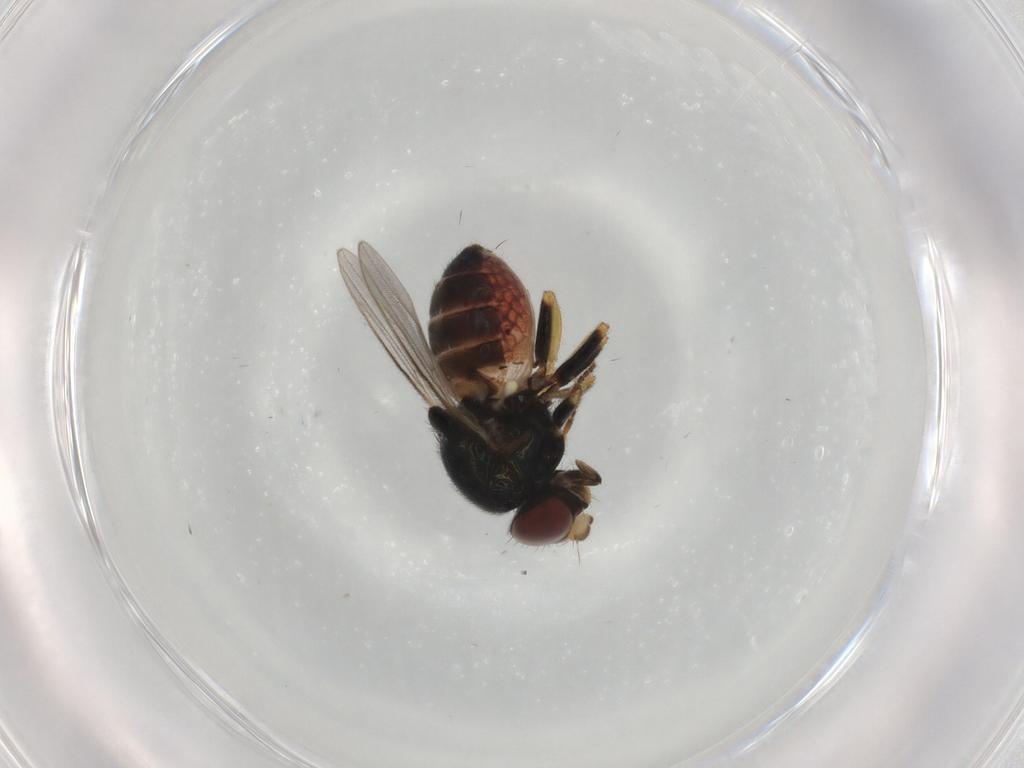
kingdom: Animalia
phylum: Arthropoda
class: Insecta
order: Diptera
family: Chloropidae
